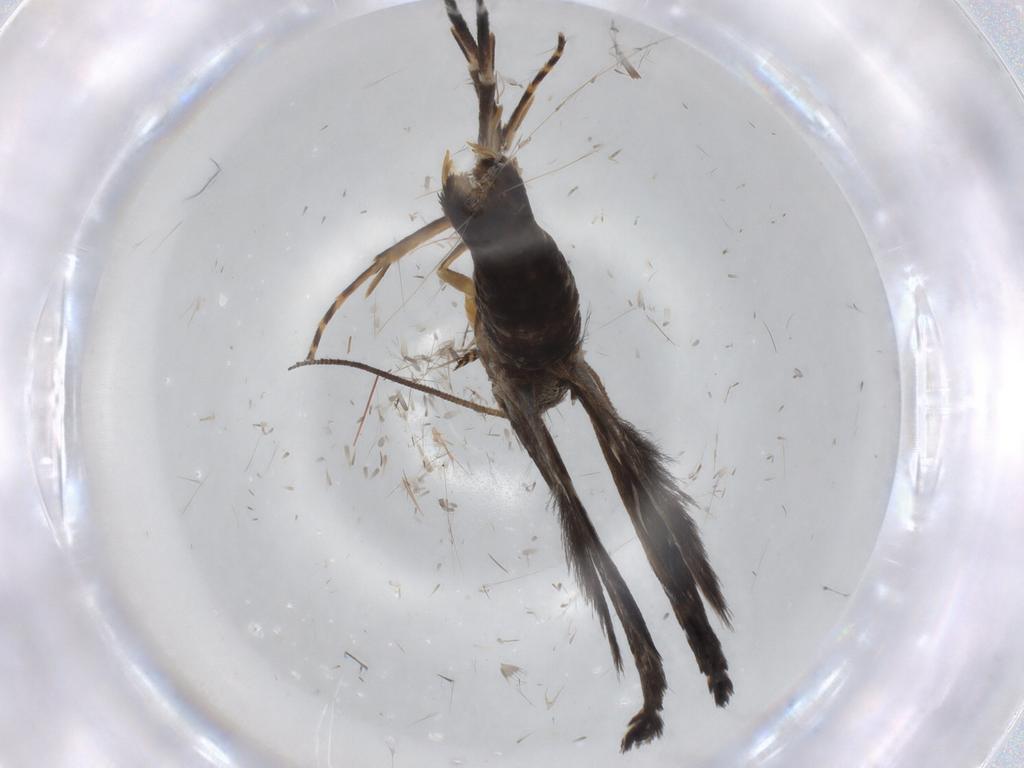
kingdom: Animalia
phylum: Arthropoda
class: Insecta
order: Lepidoptera
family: Glyphipterigidae
